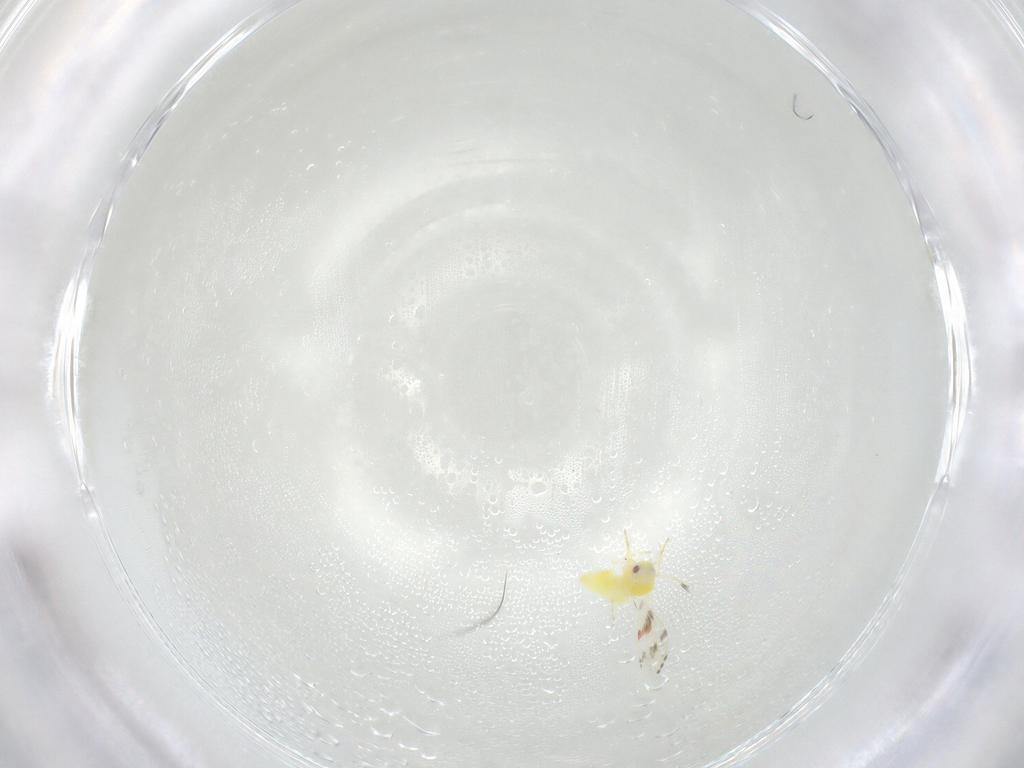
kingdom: Animalia
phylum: Arthropoda
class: Insecta
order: Hemiptera
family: Aleyrodidae
